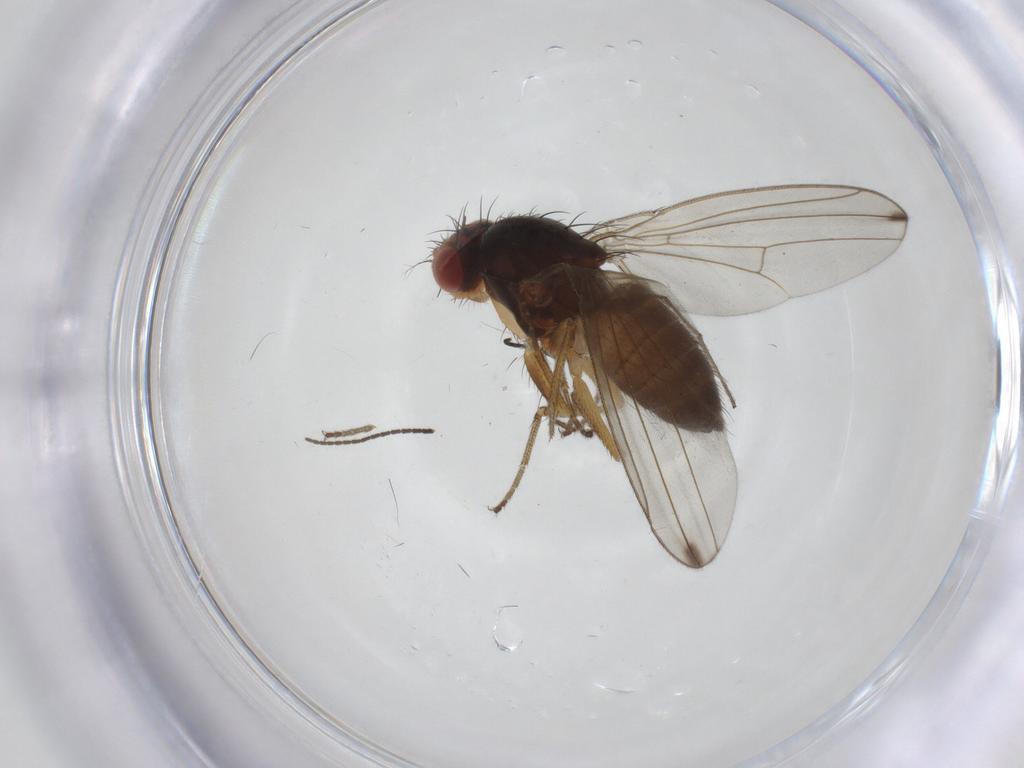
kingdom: Animalia
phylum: Arthropoda
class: Insecta
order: Diptera
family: Drosophilidae
